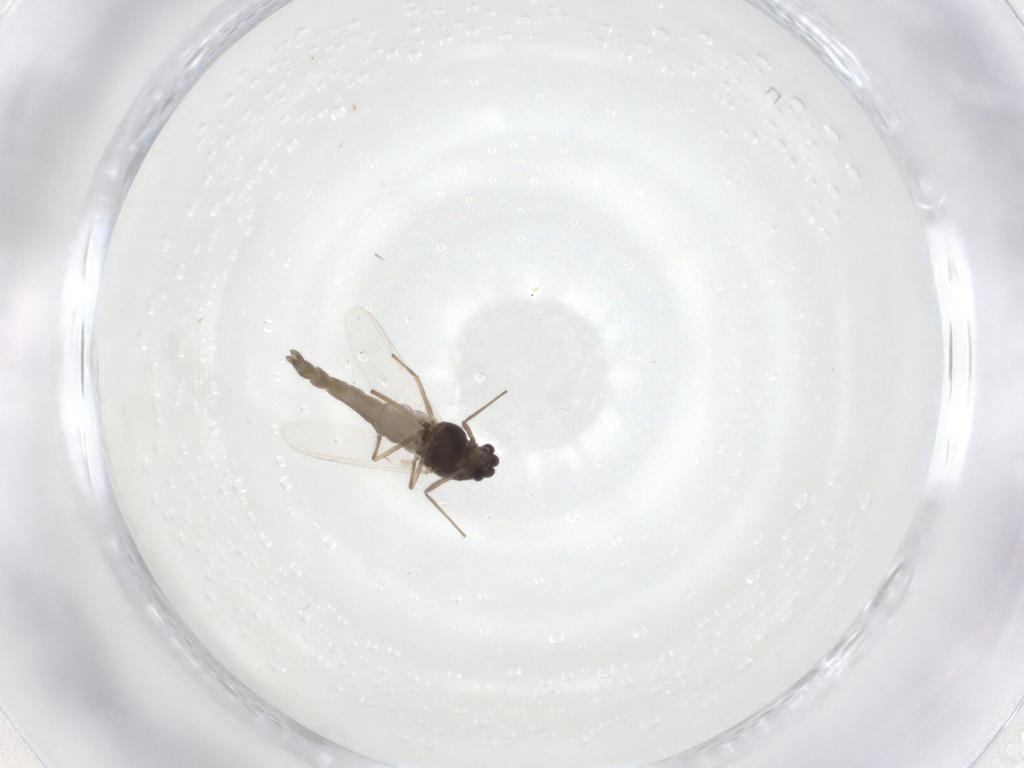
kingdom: Animalia
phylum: Arthropoda
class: Insecta
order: Diptera
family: Chironomidae
